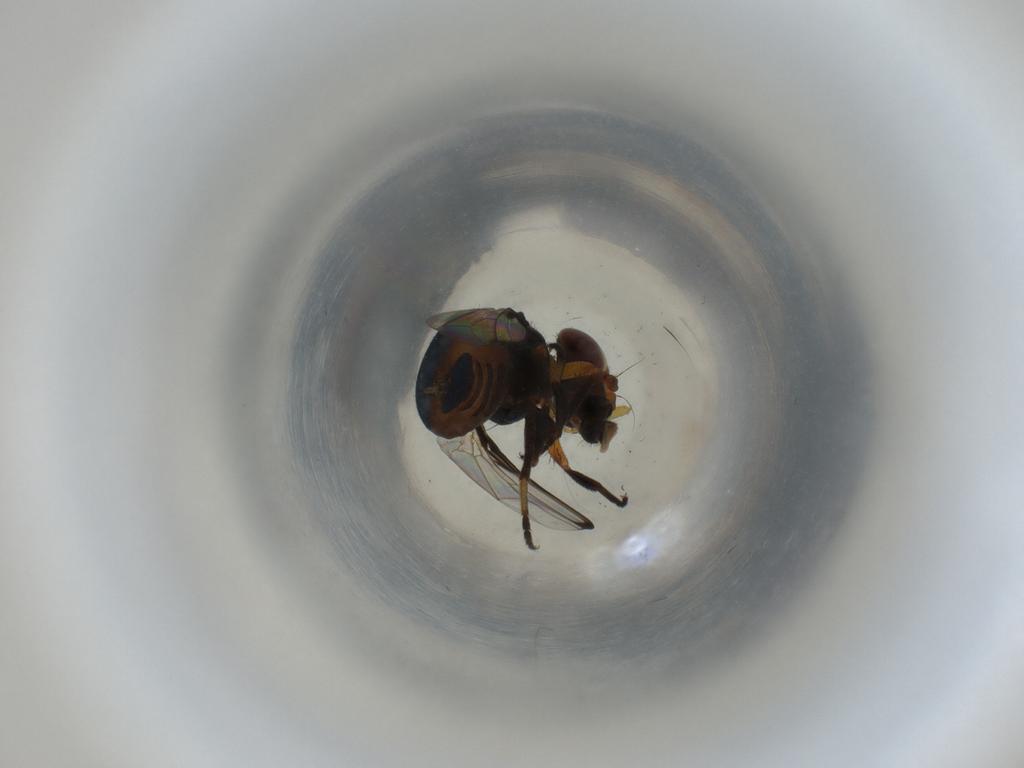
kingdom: Animalia
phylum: Arthropoda
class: Insecta
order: Diptera
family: Ulidiidae
